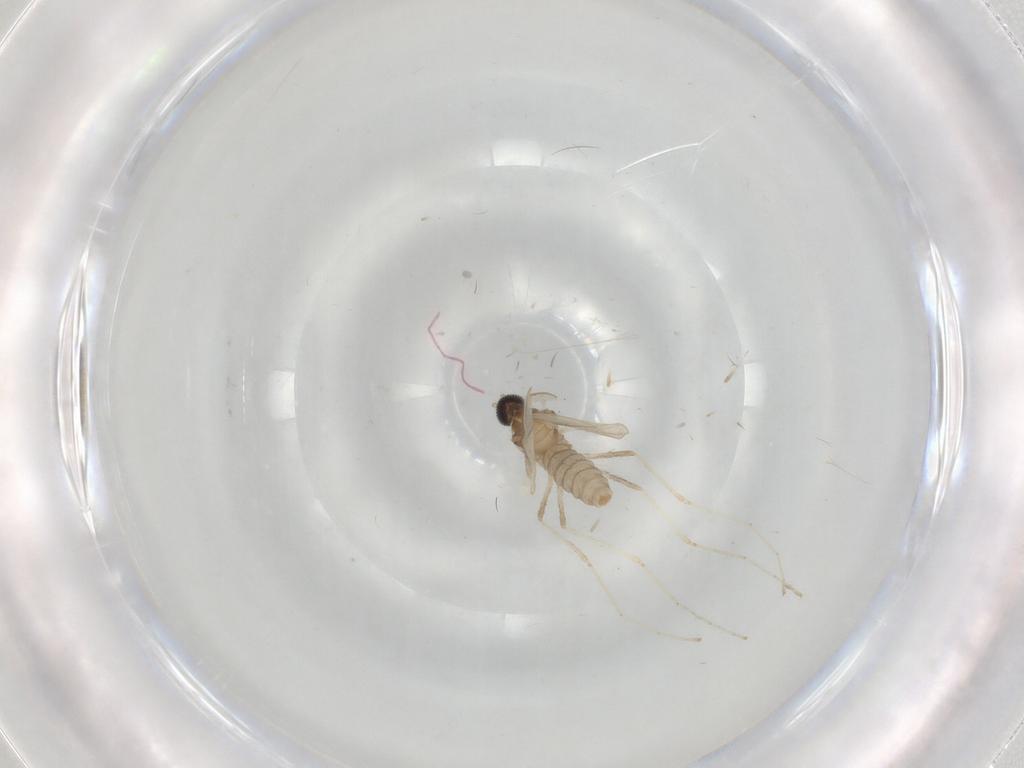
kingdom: Animalia
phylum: Arthropoda
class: Insecta
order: Diptera
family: Cecidomyiidae
